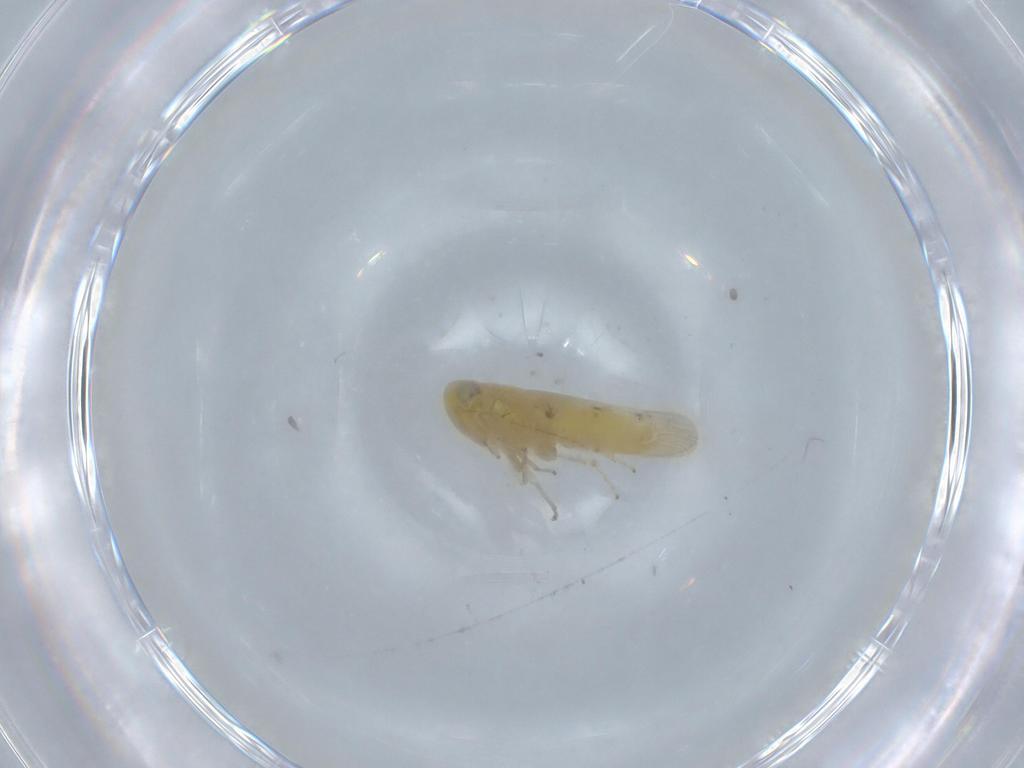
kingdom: Animalia
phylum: Arthropoda
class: Insecta
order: Hemiptera
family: Cicadellidae
